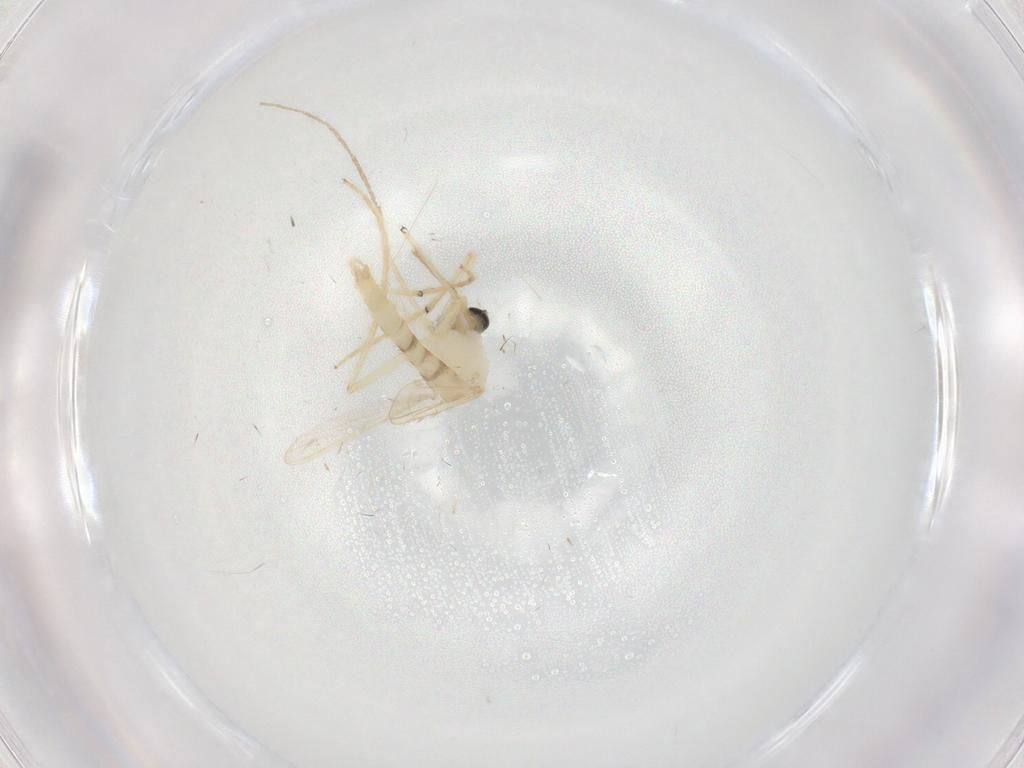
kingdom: Animalia
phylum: Arthropoda
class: Insecta
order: Diptera
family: Chironomidae
